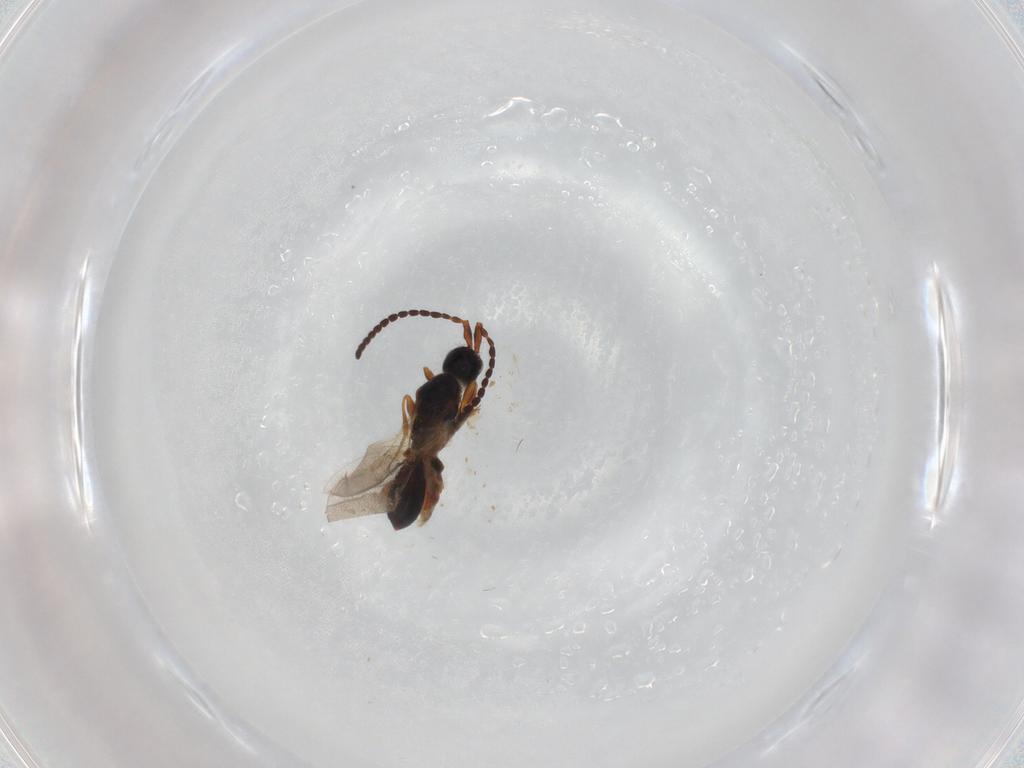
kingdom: Animalia
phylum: Arthropoda
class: Insecta
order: Hymenoptera
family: Diapriidae
